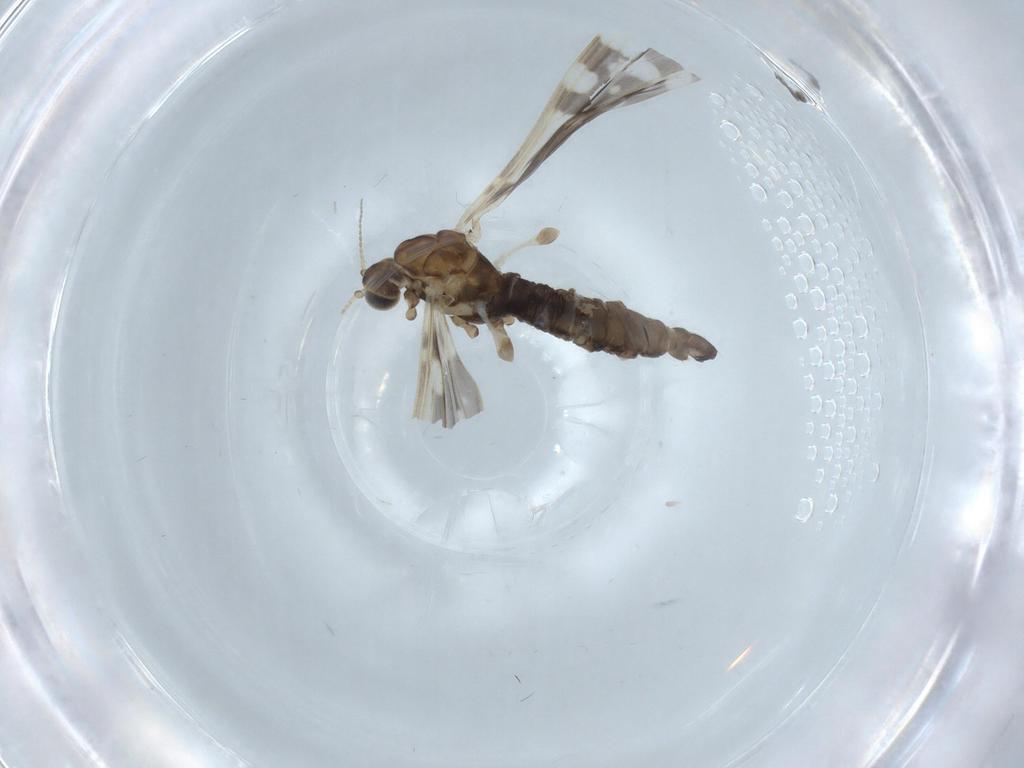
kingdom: Animalia
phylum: Arthropoda
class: Insecta
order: Diptera
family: Limoniidae
